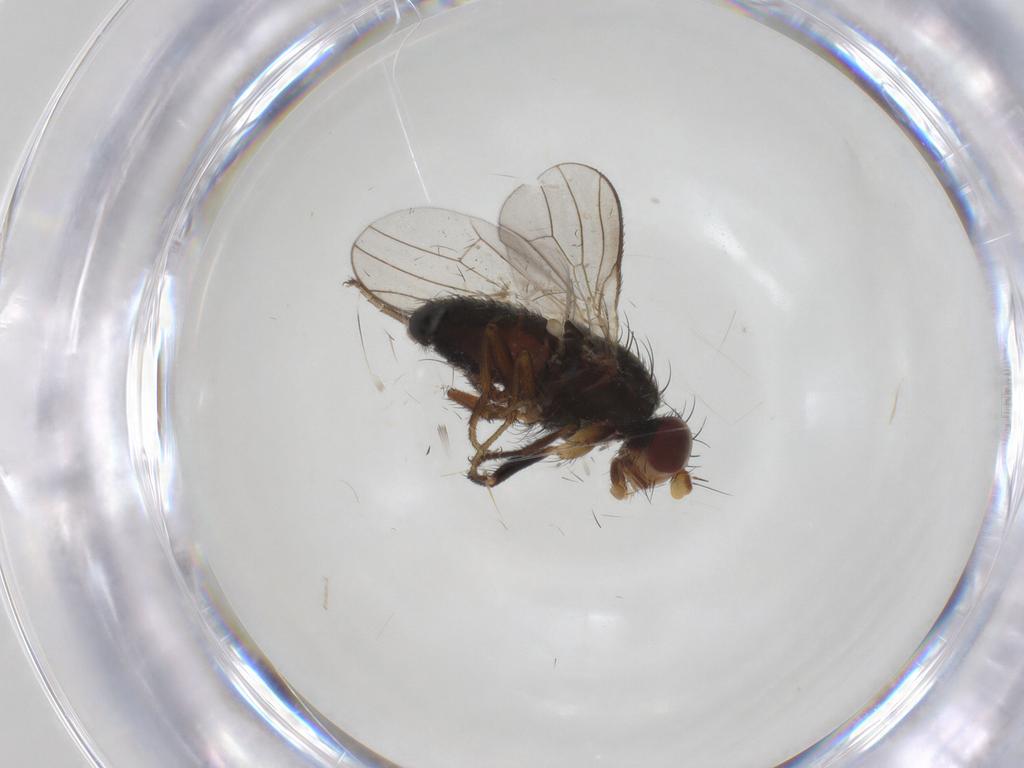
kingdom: Animalia
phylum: Arthropoda
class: Insecta
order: Diptera
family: Heleomyzidae
